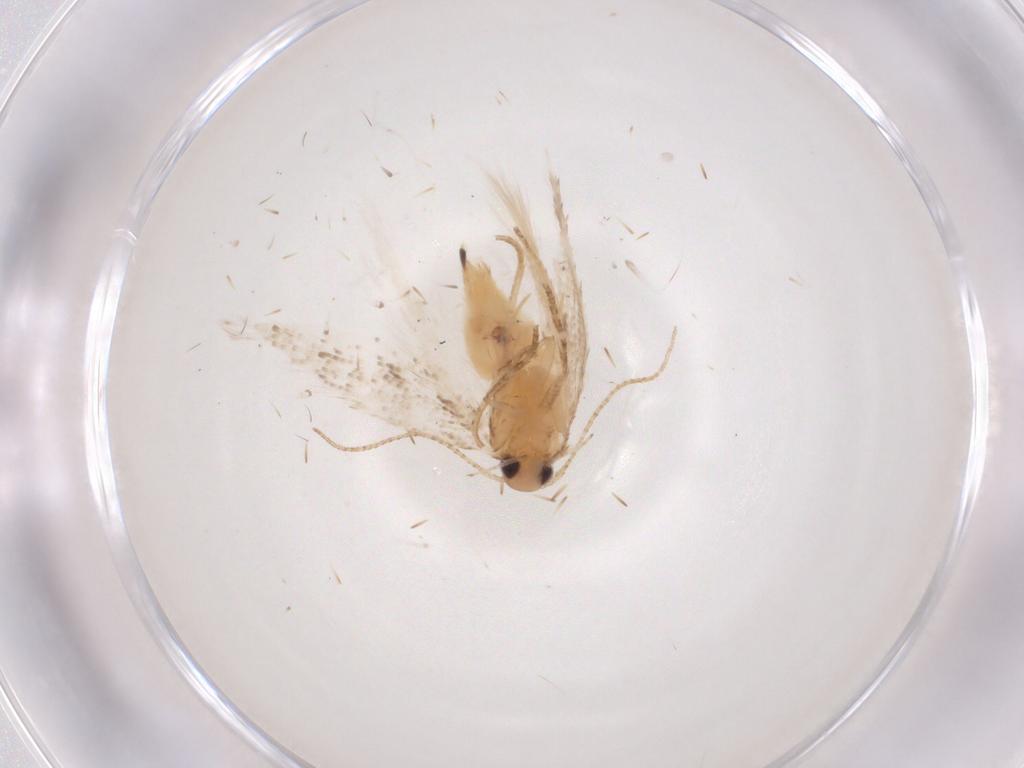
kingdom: Animalia
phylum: Arthropoda
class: Insecta
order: Lepidoptera
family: Gelechiidae
